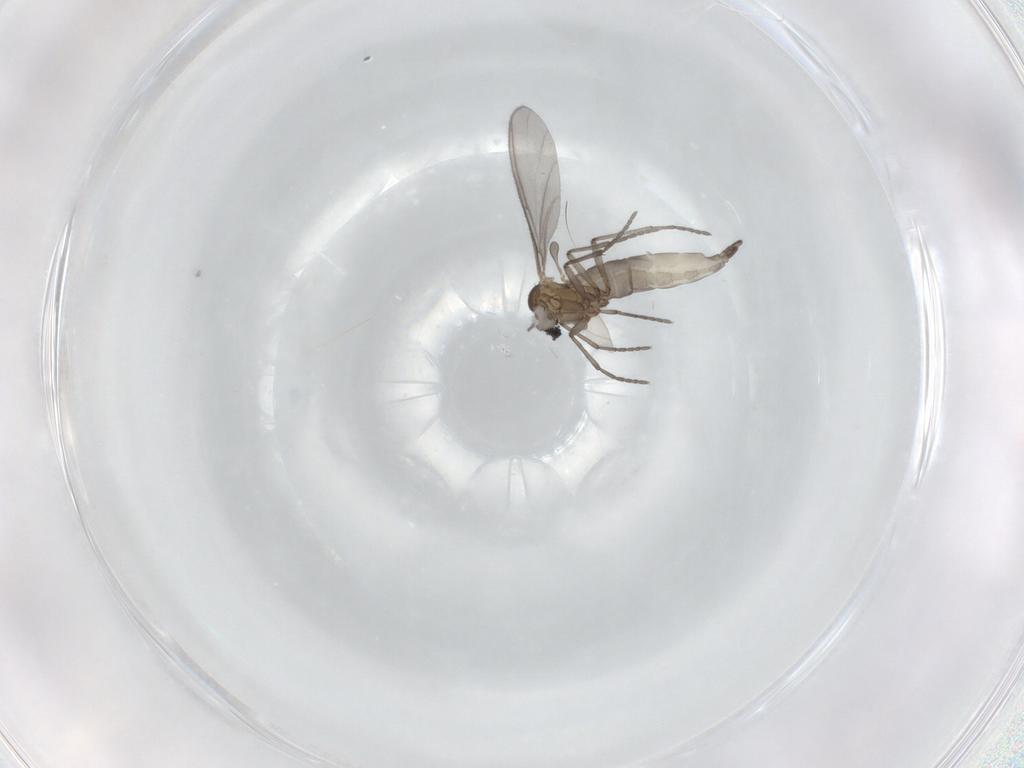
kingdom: Animalia
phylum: Arthropoda
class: Insecta
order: Diptera
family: Sciaridae
